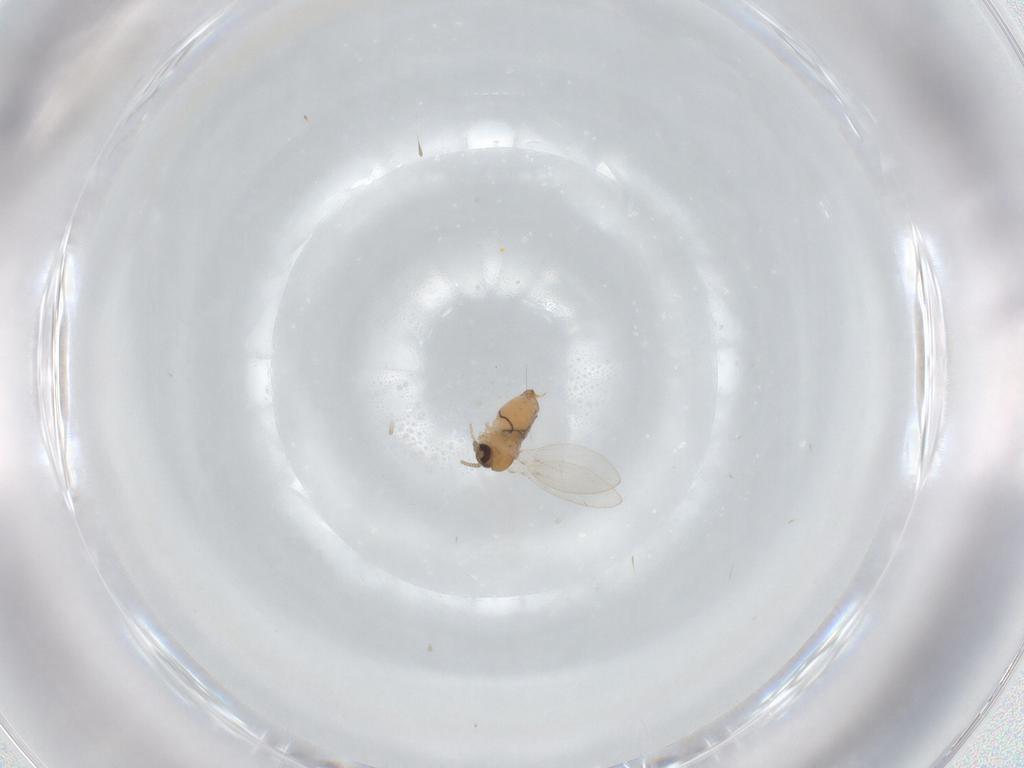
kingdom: Animalia
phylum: Arthropoda
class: Insecta
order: Diptera
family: Psychodidae
